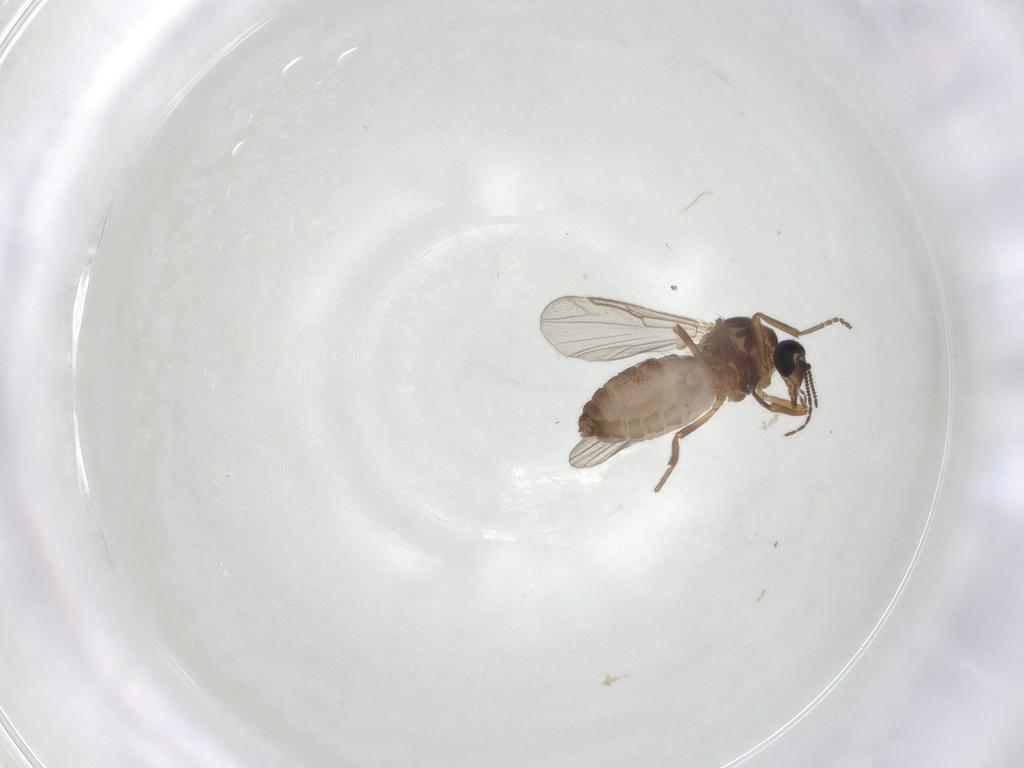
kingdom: Animalia
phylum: Arthropoda
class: Insecta
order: Diptera
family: Ceratopogonidae
